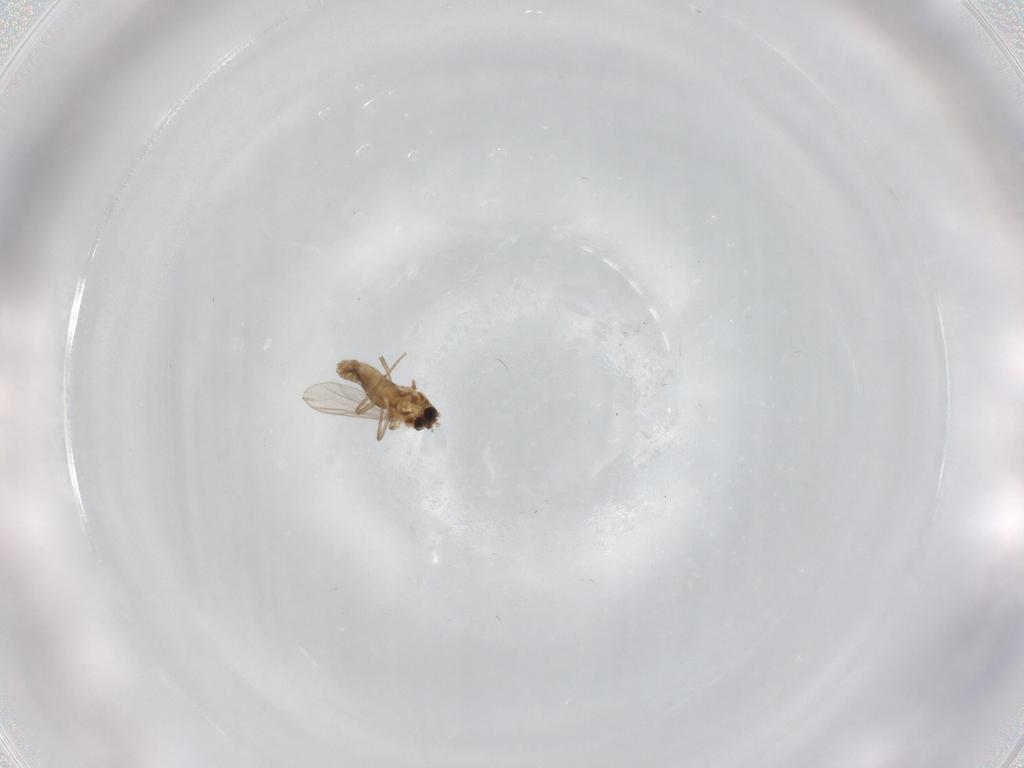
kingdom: Animalia
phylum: Arthropoda
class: Insecta
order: Diptera
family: Chironomidae
